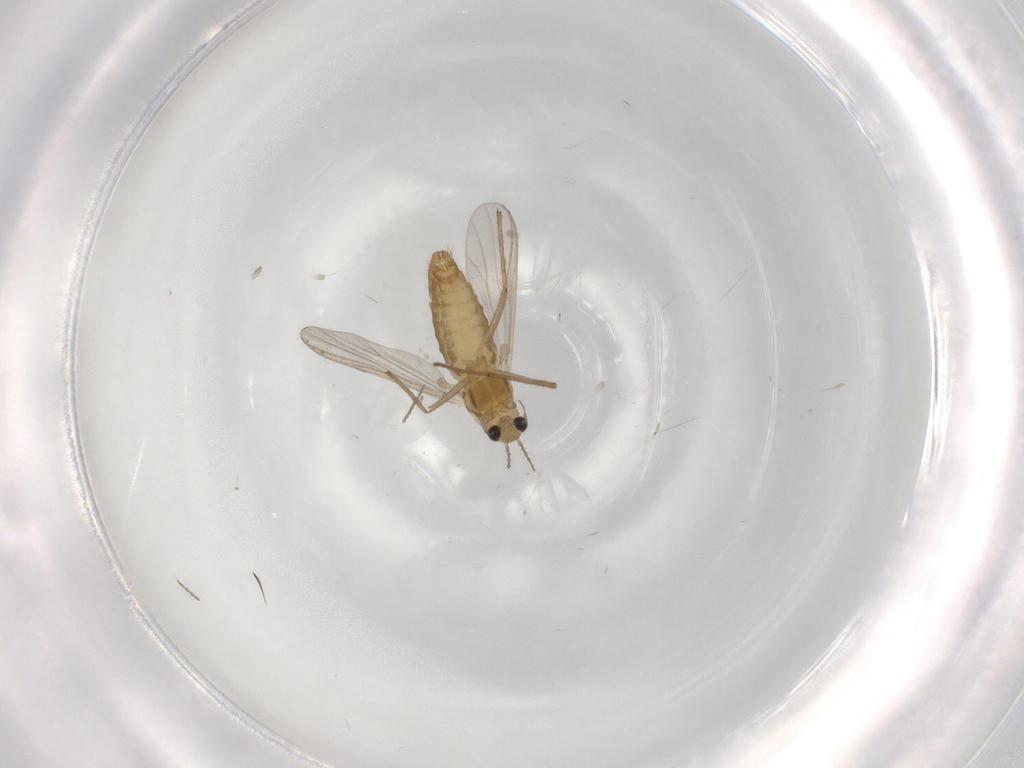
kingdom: Animalia
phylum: Arthropoda
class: Insecta
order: Diptera
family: Chironomidae
